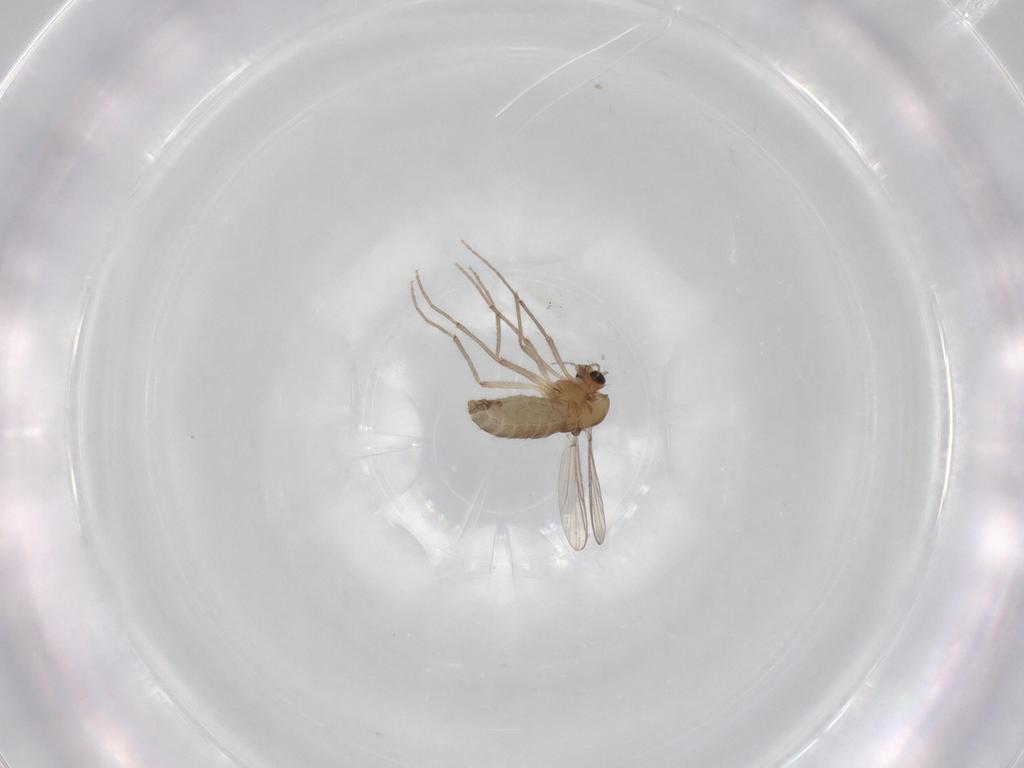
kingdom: Animalia
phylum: Arthropoda
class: Insecta
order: Diptera
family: Chironomidae
